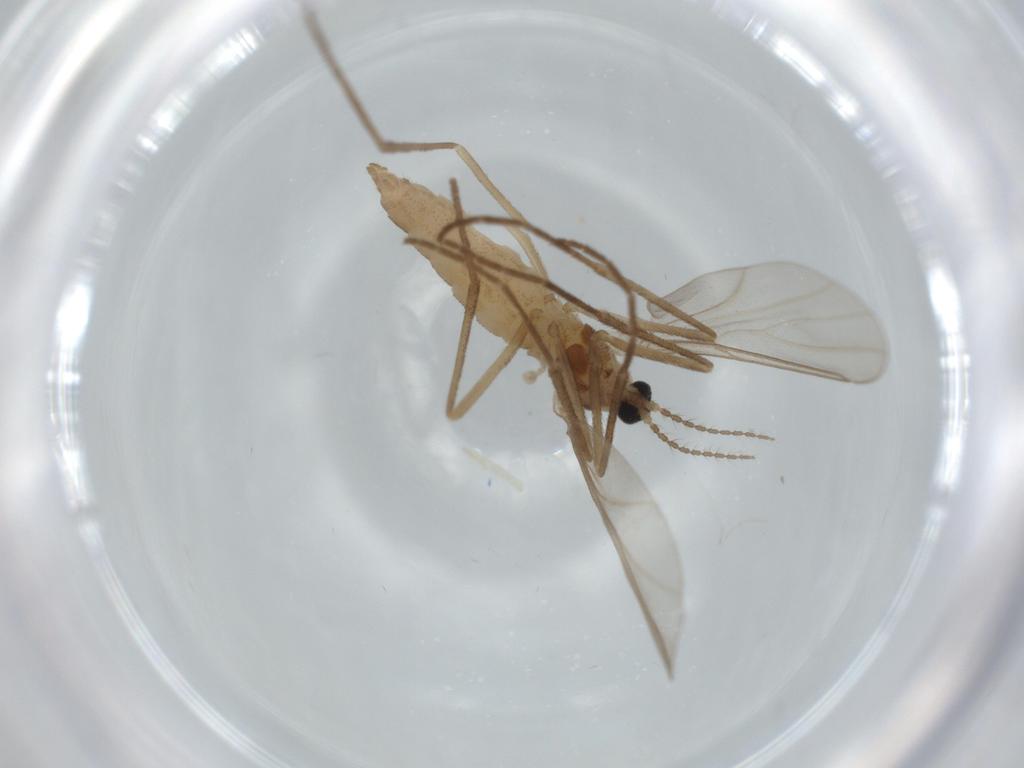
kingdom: Animalia
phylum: Arthropoda
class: Insecta
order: Diptera
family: Cecidomyiidae
